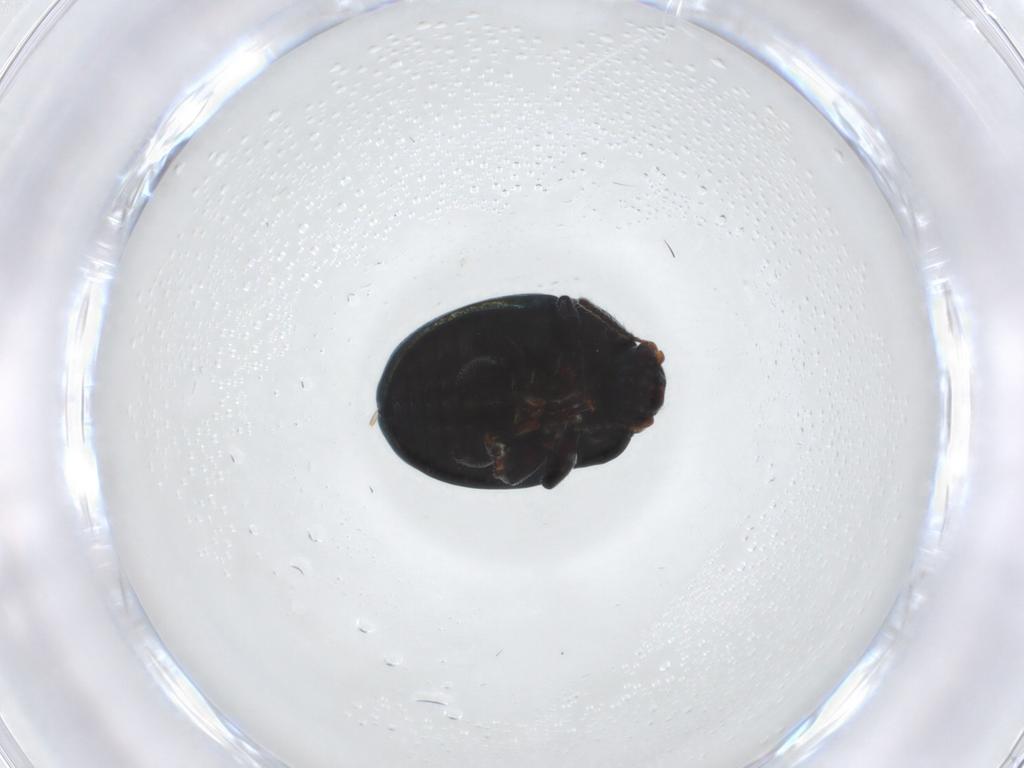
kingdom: Animalia
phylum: Arthropoda
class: Insecta
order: Coleoptera
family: Chrysomelidae
